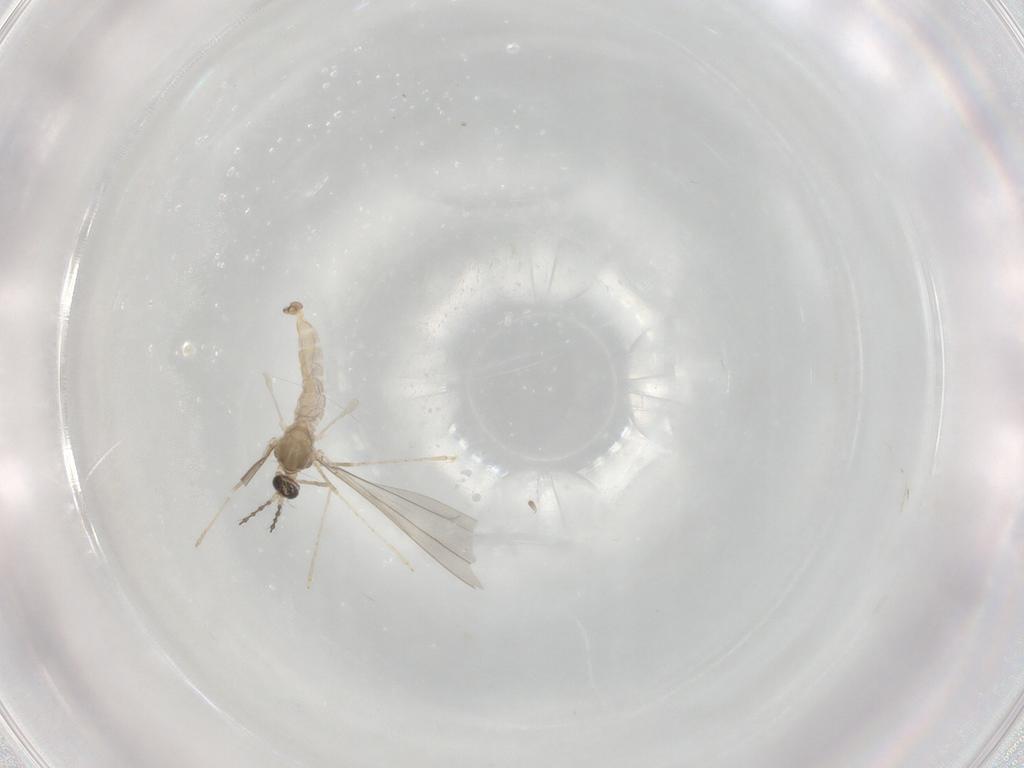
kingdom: Animalia
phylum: Arthropoda
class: Insecta
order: Diptera
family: Cecidomyiidae
